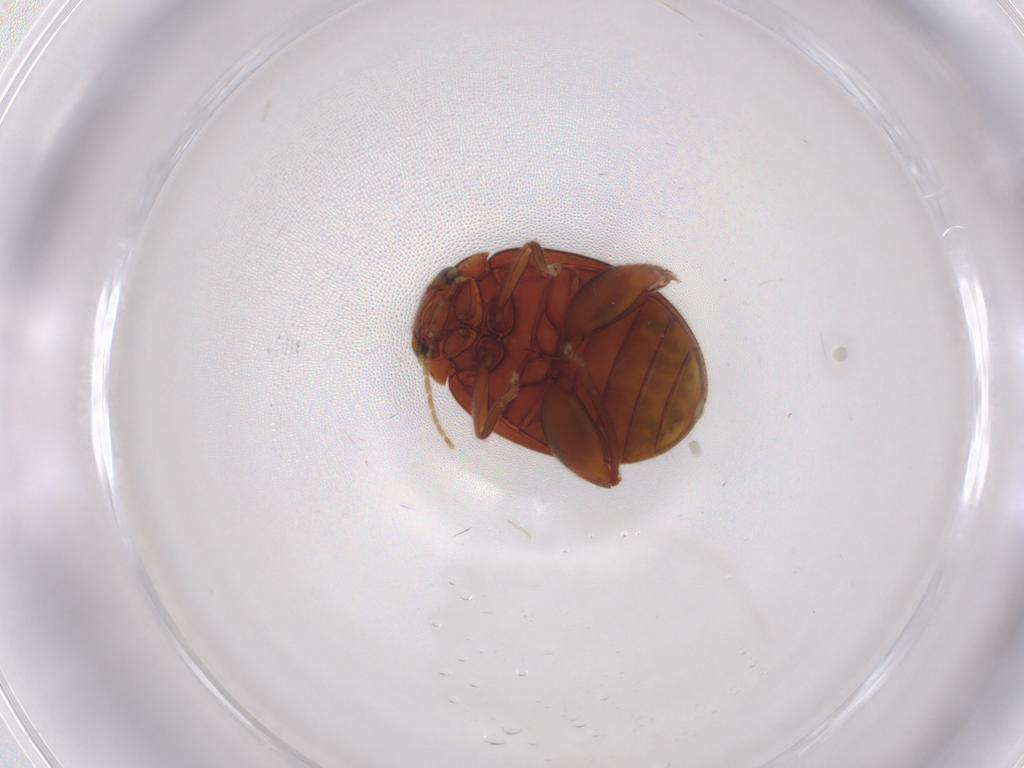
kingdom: Animalia
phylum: Arthropoda
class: Insecta
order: Coleoptera
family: Scirtidae
